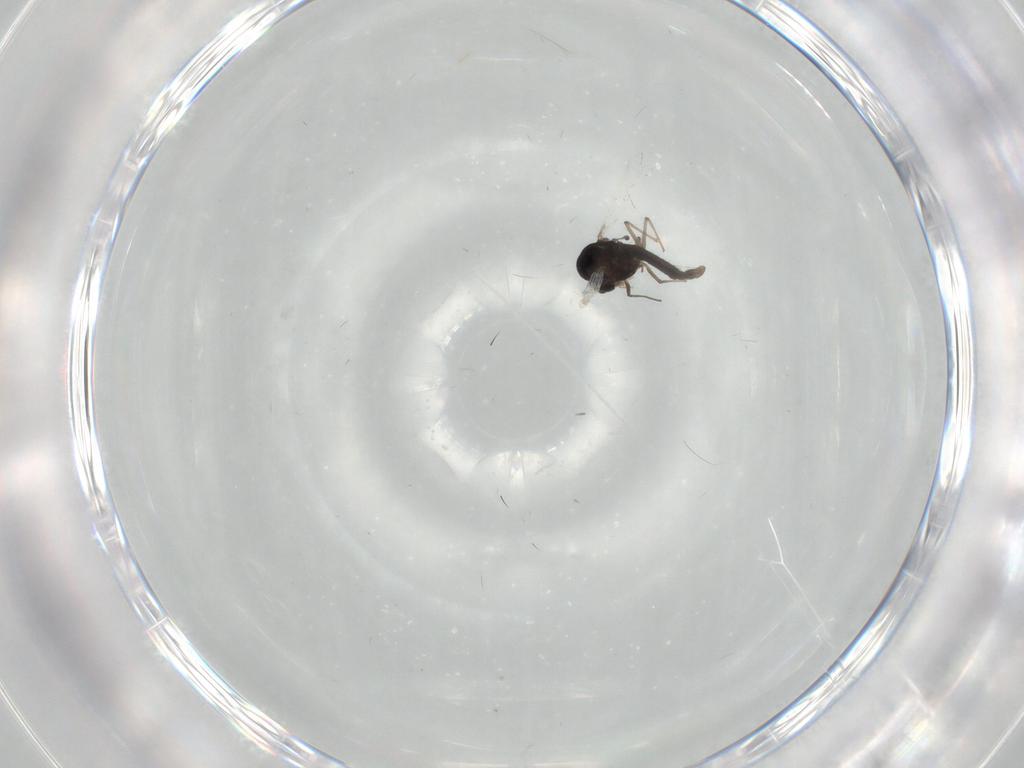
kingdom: Animalia
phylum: Arthropoda
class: Insecta
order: Diptera
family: Chironomidae
